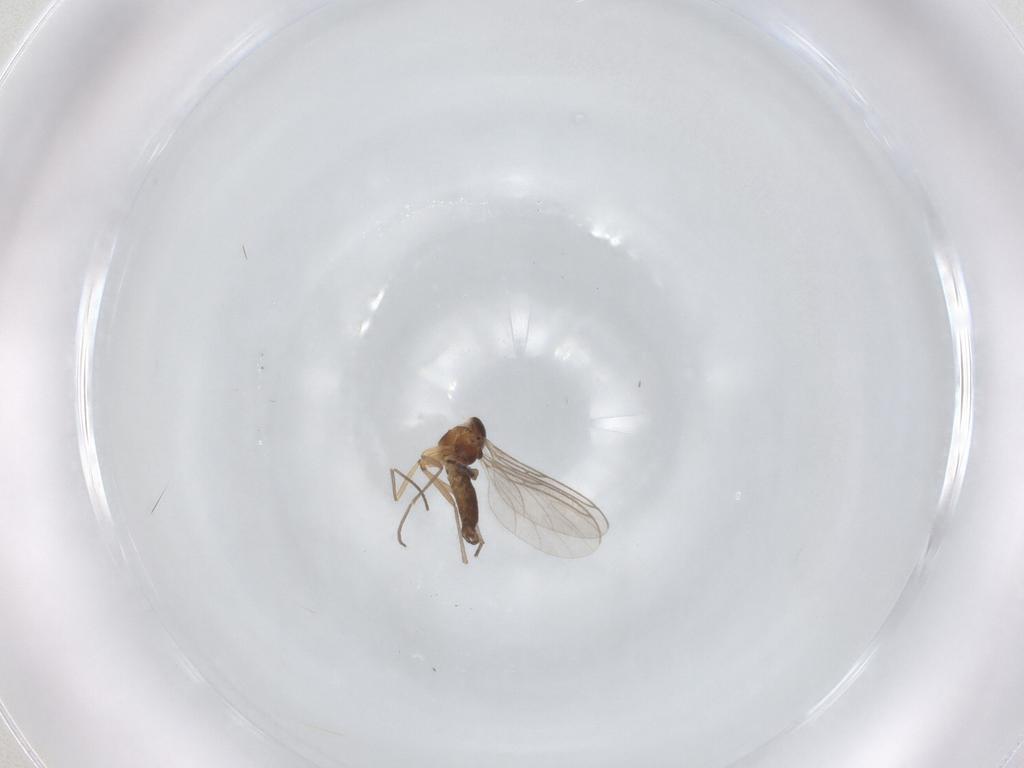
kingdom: Animalia
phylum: Arthropoda
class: Insecta
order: Diptera
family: Sciaridae
